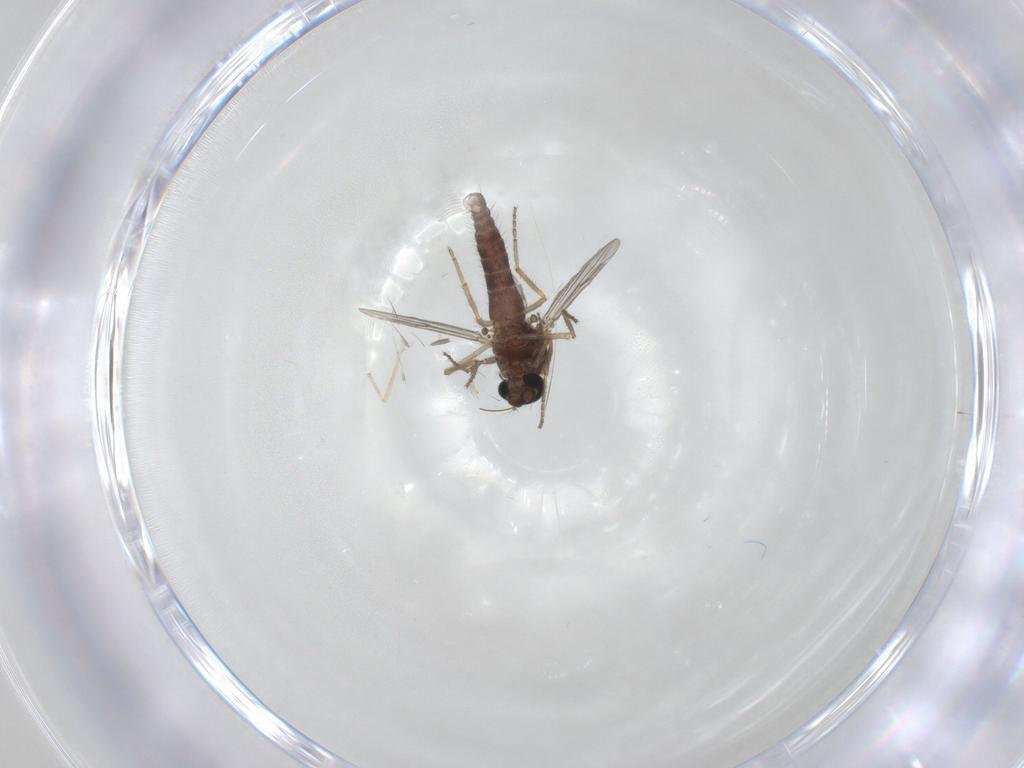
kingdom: Animalia
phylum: Arthropoda
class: Insecta
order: Diptera
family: Ceratopogonidae
